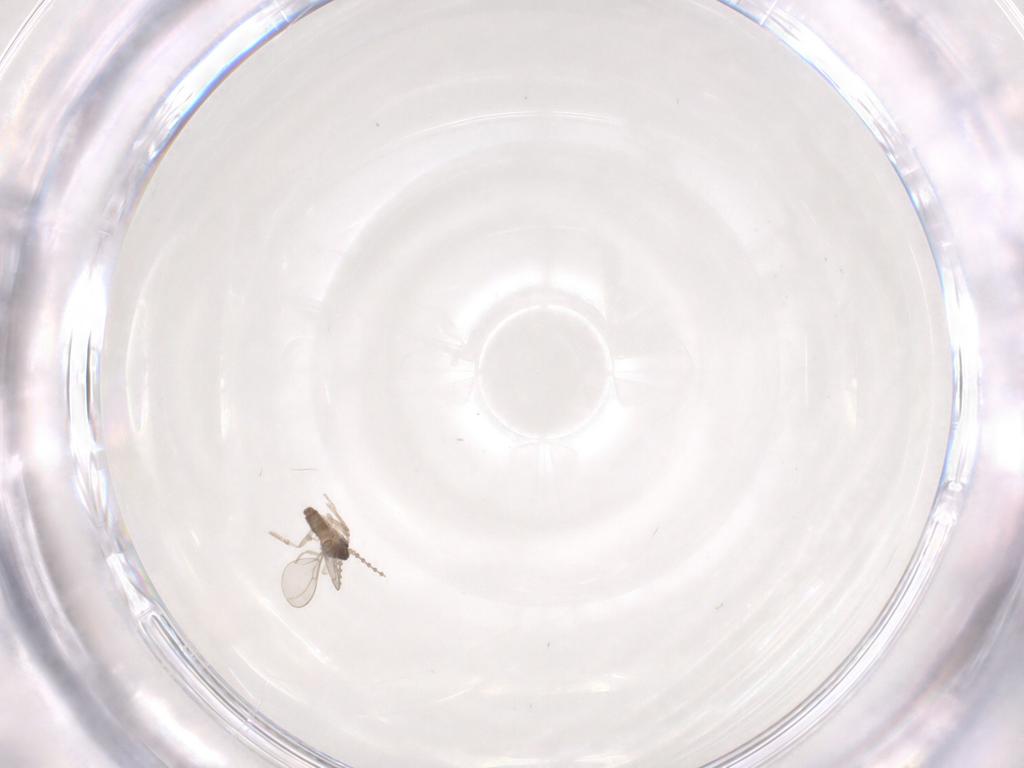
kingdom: Animalia
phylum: Arthropoda
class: Insecta
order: Diptera
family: Cecidomyiidae
